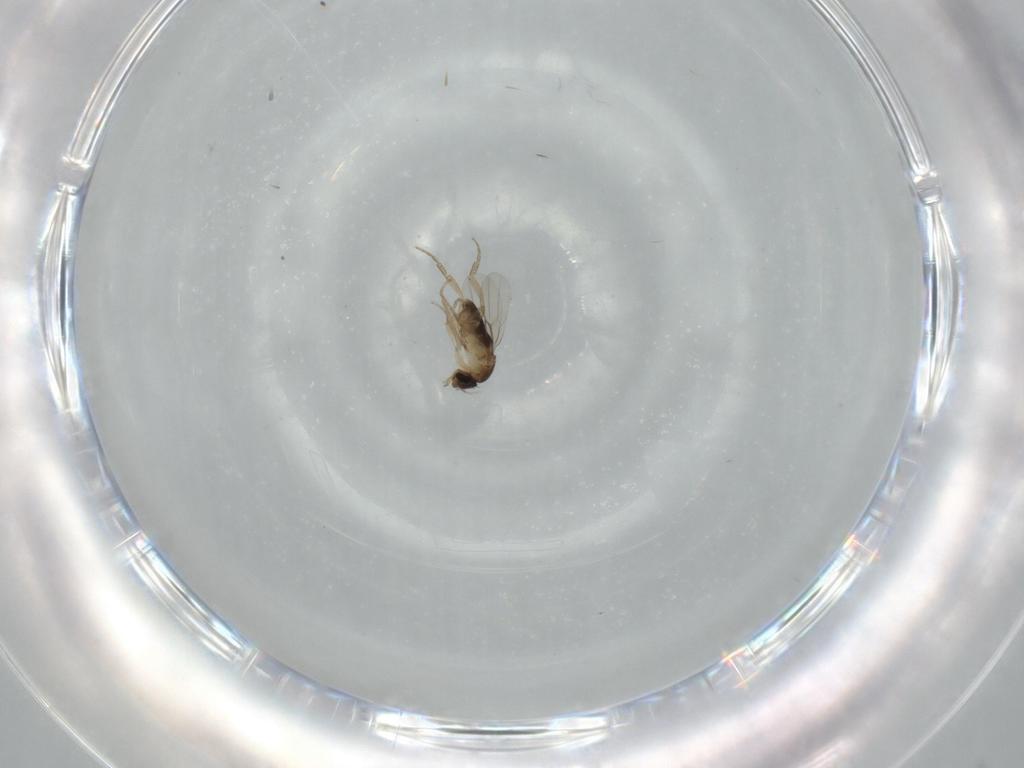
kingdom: Animalia
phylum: Arthropoda
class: Insecta
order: Diptera
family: Phoridae
